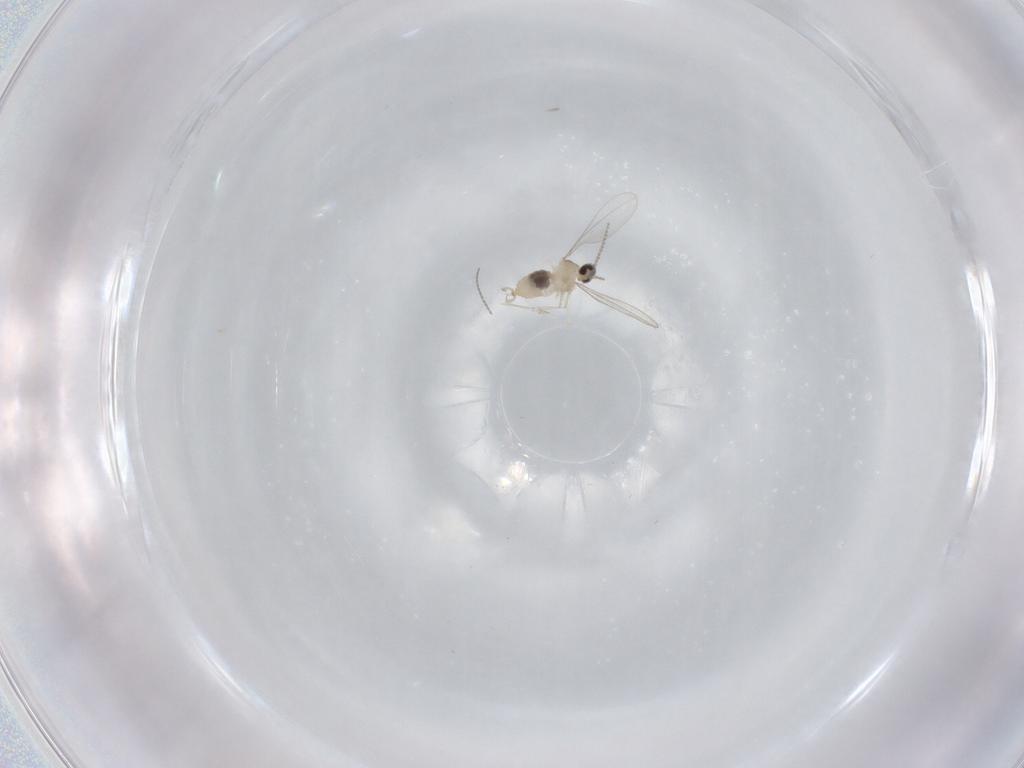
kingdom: Animalia
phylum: Arthropoda
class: Insecta
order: Diptera
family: Cecidomyiidae
